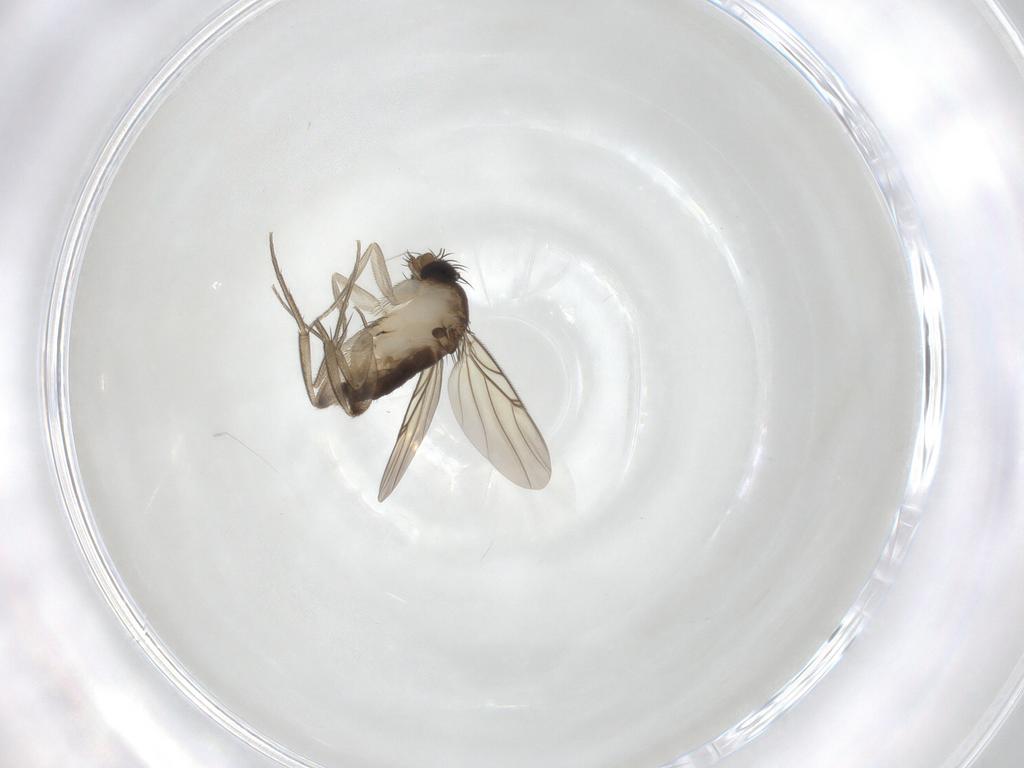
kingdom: Animalia
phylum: Arthropoda
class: Insecta
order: Diptera
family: Phoridae
